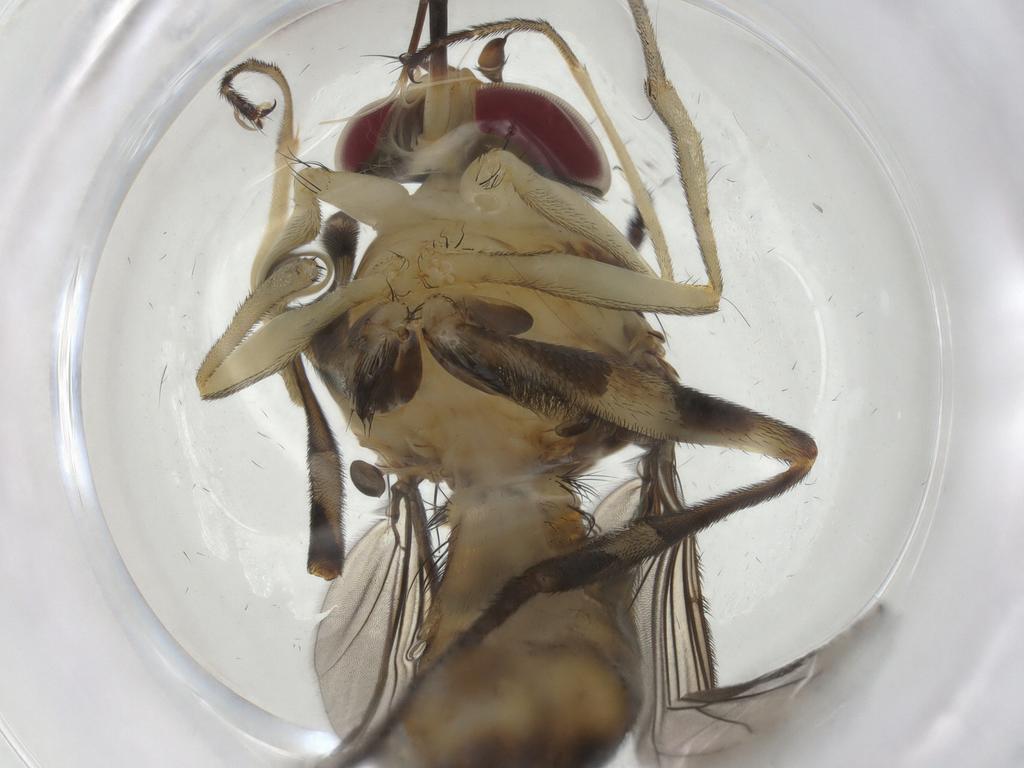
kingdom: Animalia
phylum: Arthropoda
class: Insecta
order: Diptera
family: Conopidae
